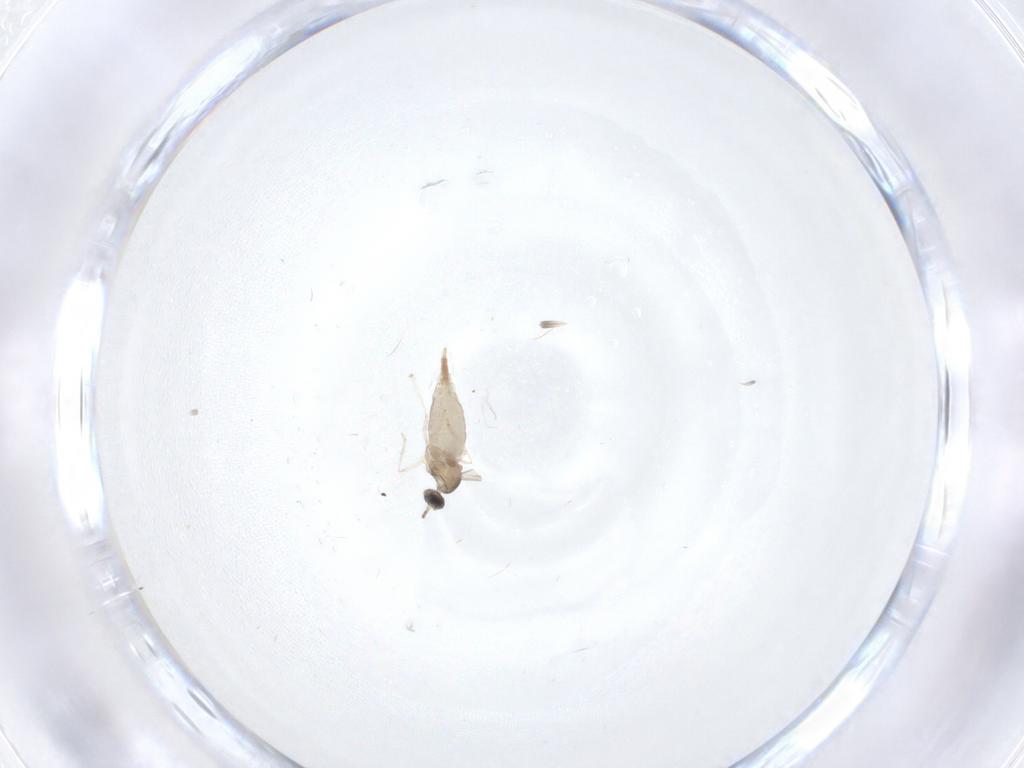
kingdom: Animalia
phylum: Arthropoda
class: Insecta
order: Diptera
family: Cecidomyiidae
